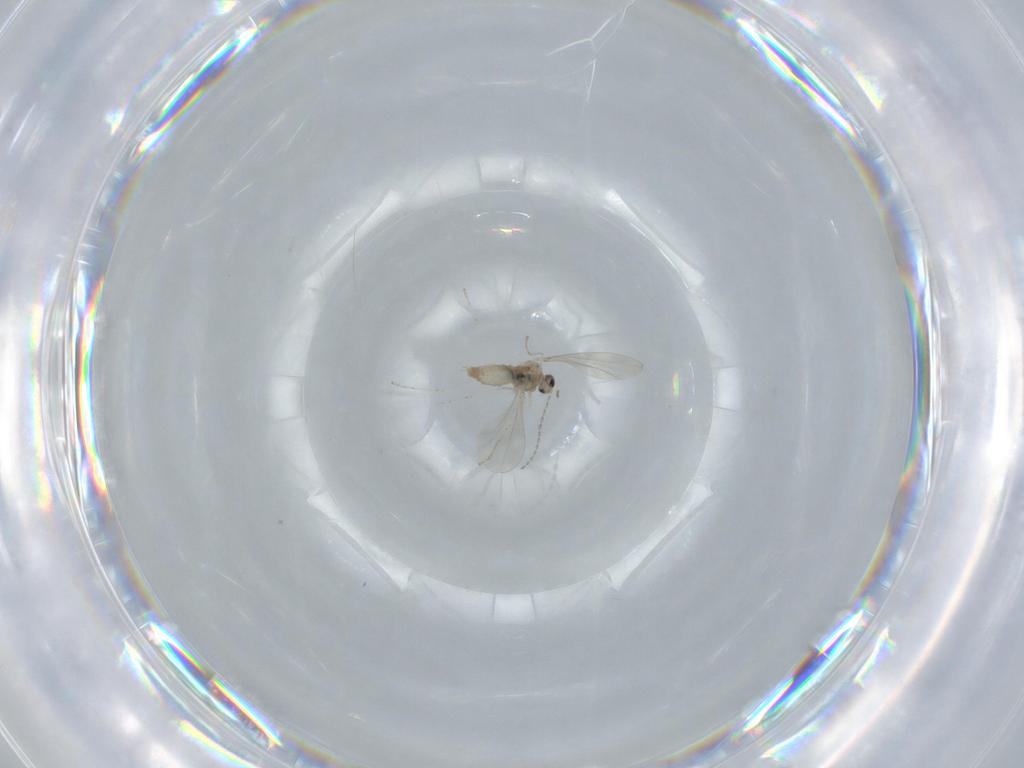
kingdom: Animalia
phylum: Arthropoda
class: Insecta
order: Diptera
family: Cecidomyiidae
